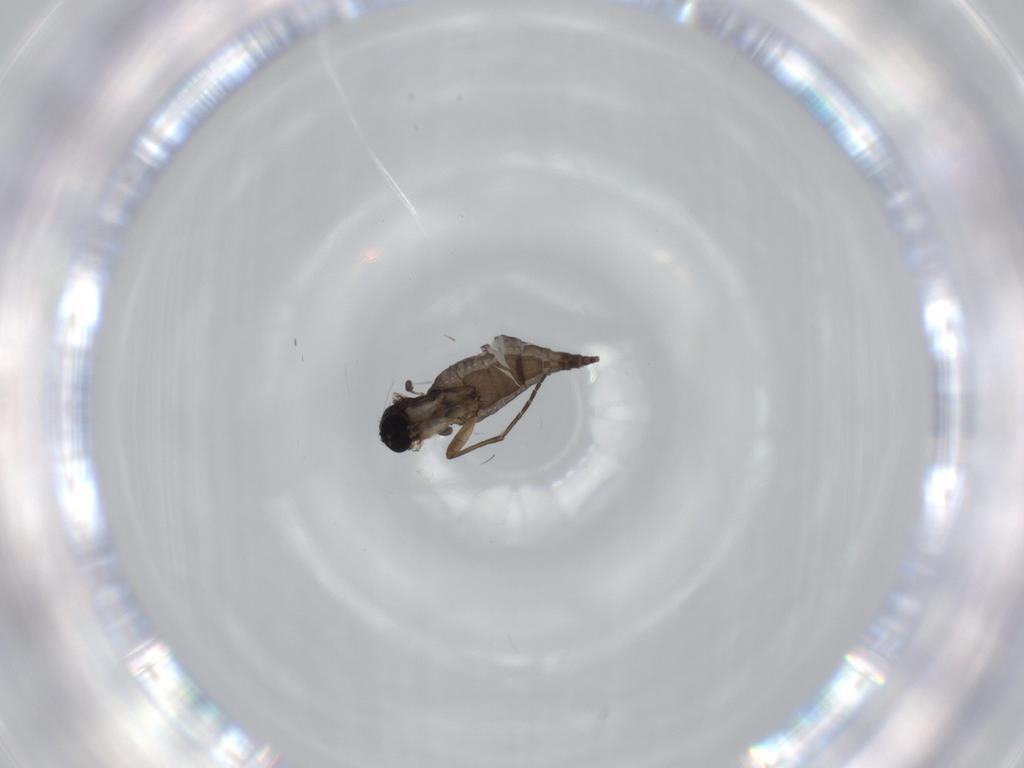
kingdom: Animalia
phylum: Arthropoda
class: Insecta
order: Diptera
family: Sciaridae
